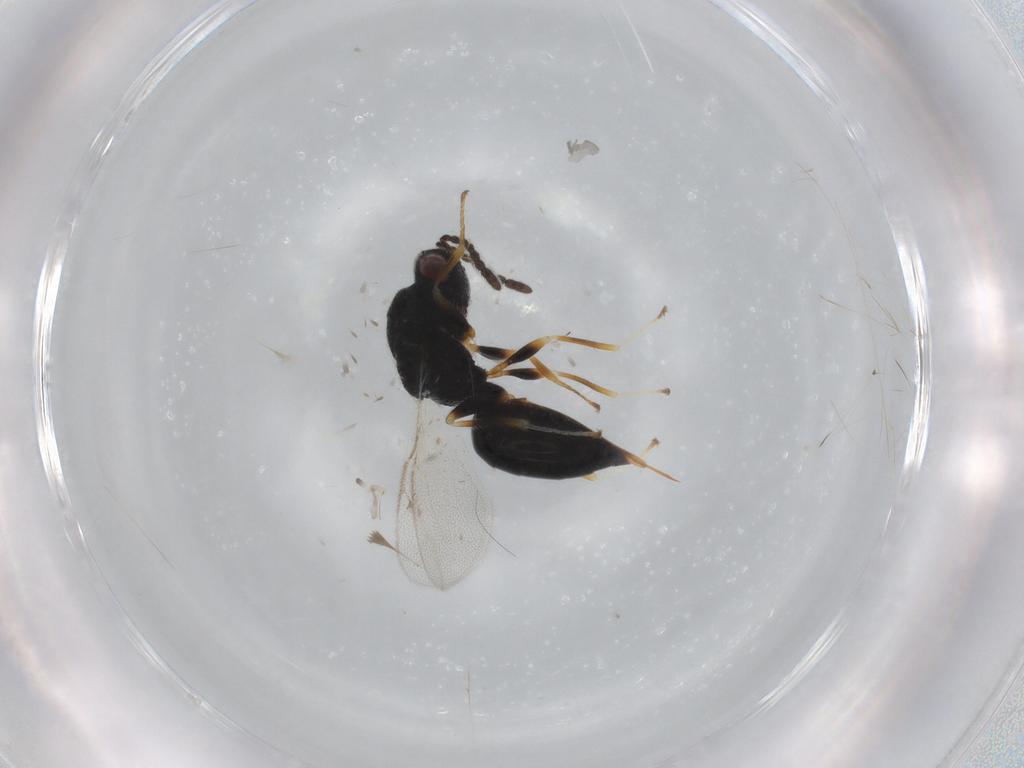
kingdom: Animalia
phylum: Arthropoda
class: Insecta
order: Hymenoptera
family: Eurytomidae
